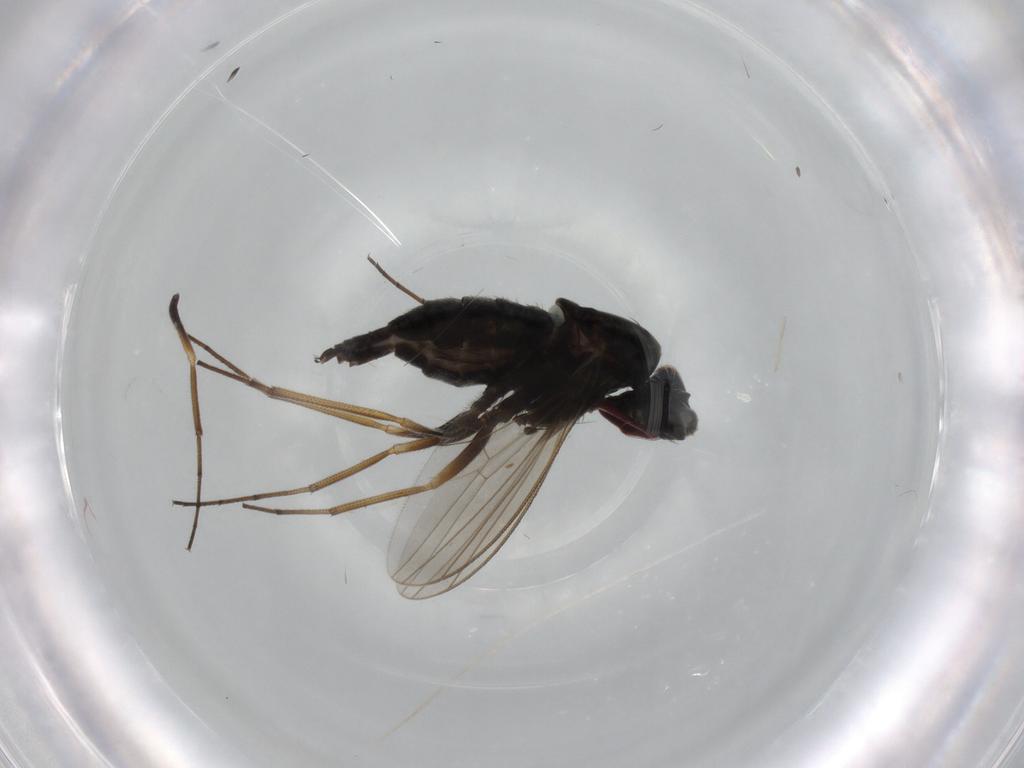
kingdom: Animalia
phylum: Arthropoda
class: Insecta
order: Diptera
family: Dolichopodidae
